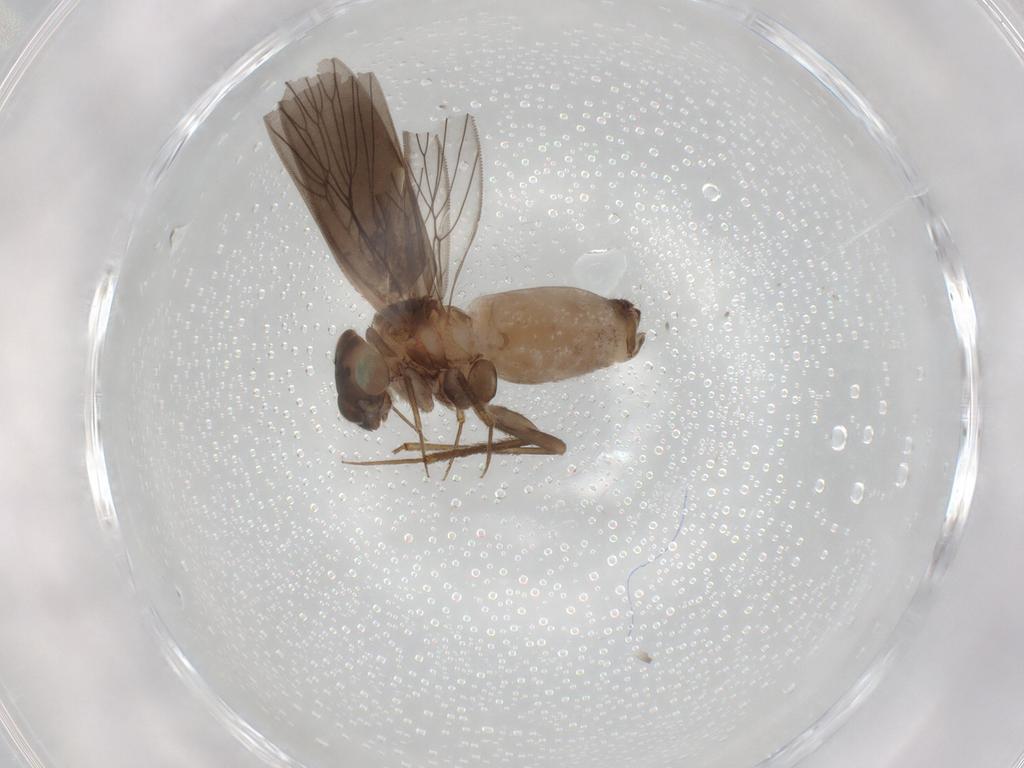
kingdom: Animalia
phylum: Arthropoda
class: Insecta
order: Psocodea
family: Lepidopsocidae
